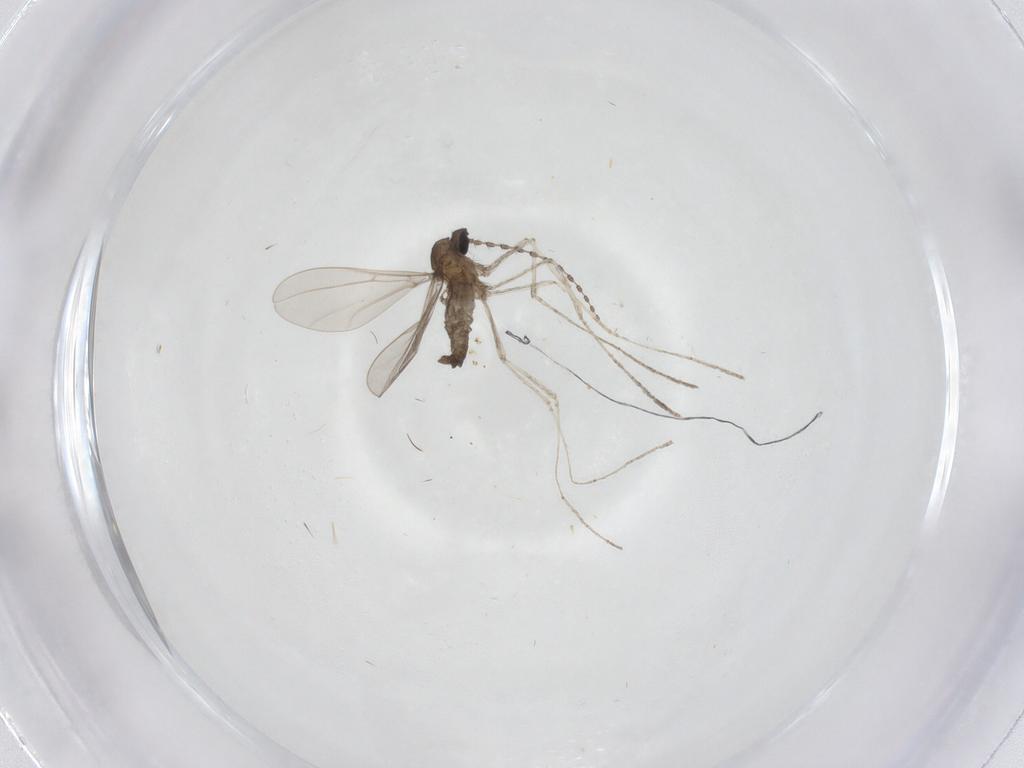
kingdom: Animalia
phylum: Arthropoda
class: Insecta
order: Diptera
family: Cecidomyiidae
